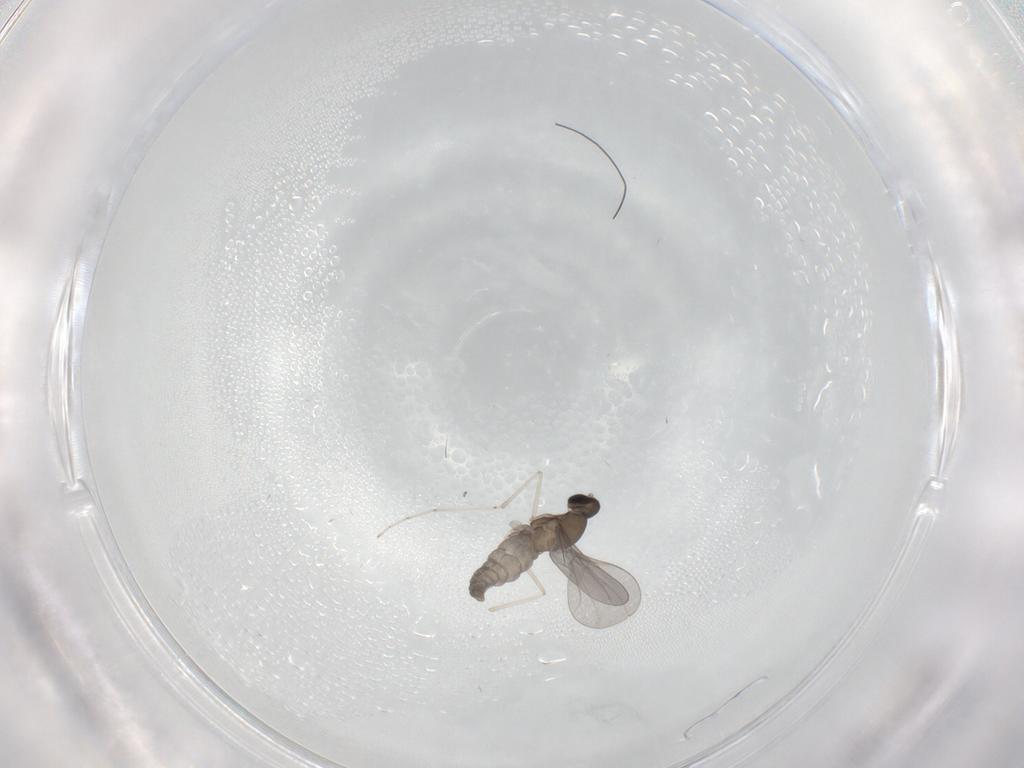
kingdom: Animalia
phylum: Arthropoda
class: Insecta
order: Diptera
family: Cecidomyiidae
